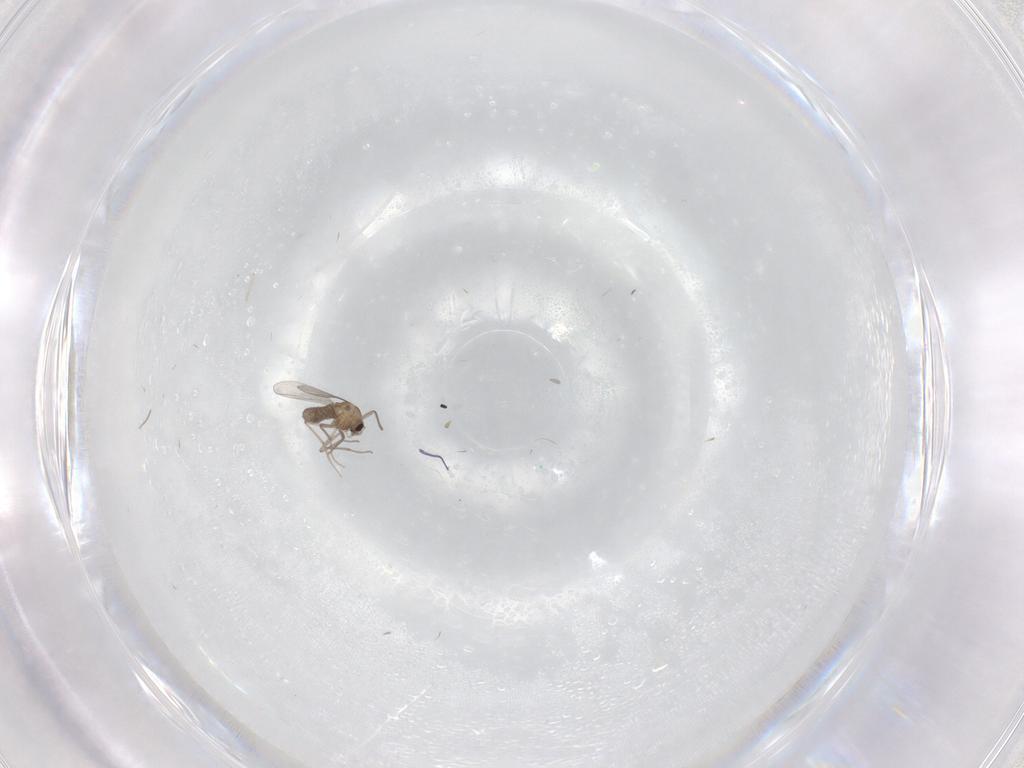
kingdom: Animalia
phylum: Arthropoda
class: Insecta
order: Diptera
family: Chironomidae
